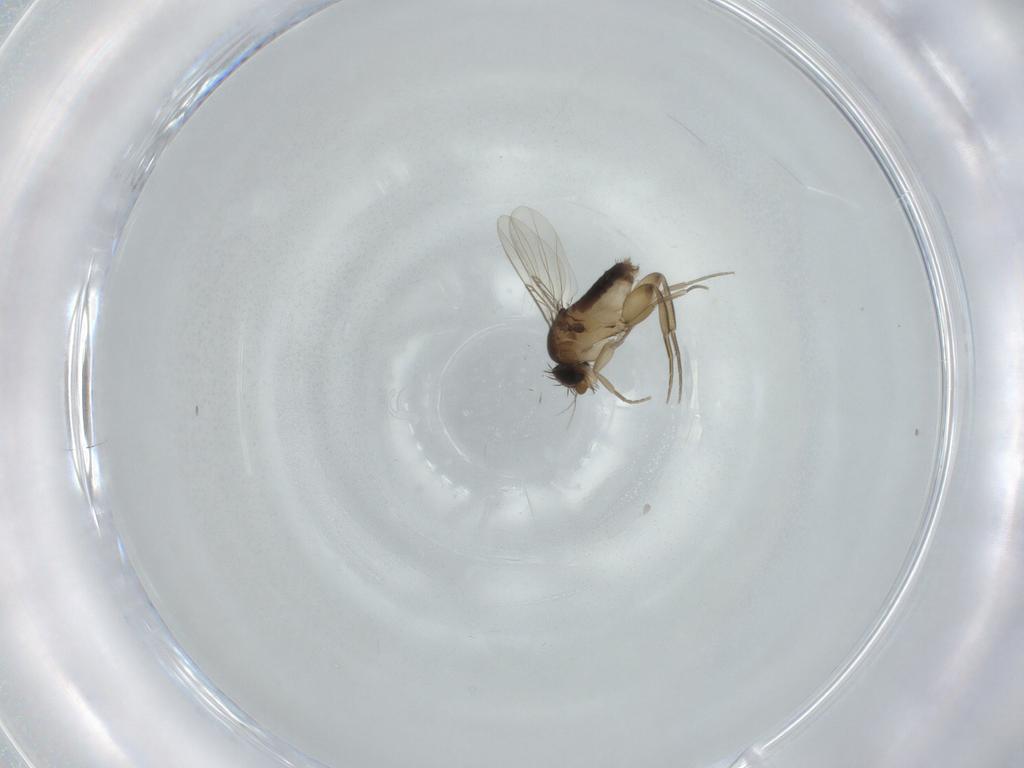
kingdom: Animalia
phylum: Arthropoda
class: Insecta
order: Diptera
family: Phoridae
